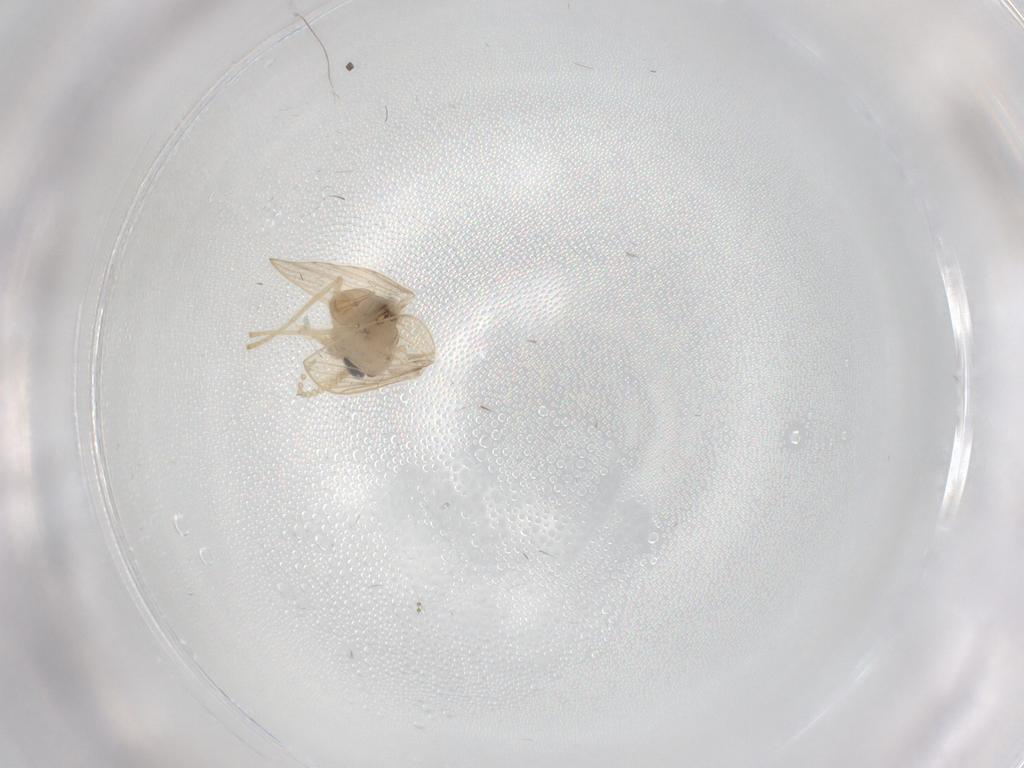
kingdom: Animalia
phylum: Arthropoda
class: Insecta
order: Diptera
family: Psychodidae
